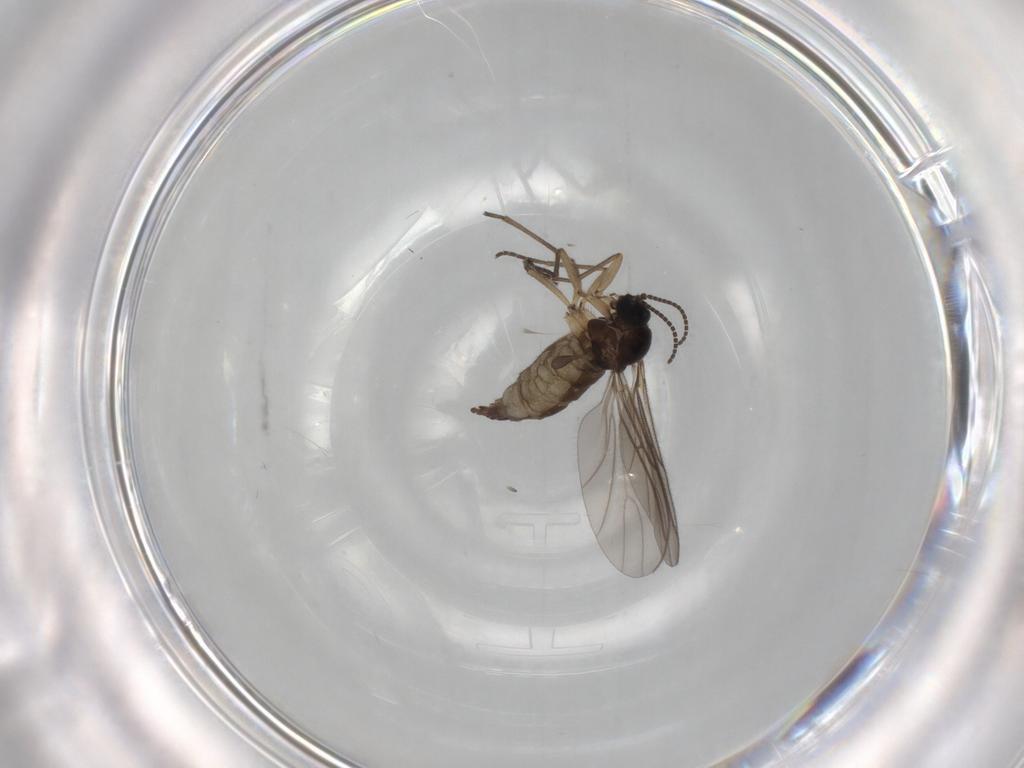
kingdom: Animalia
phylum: Arthropoda
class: Insecta
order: Diptera
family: Sciaridae
